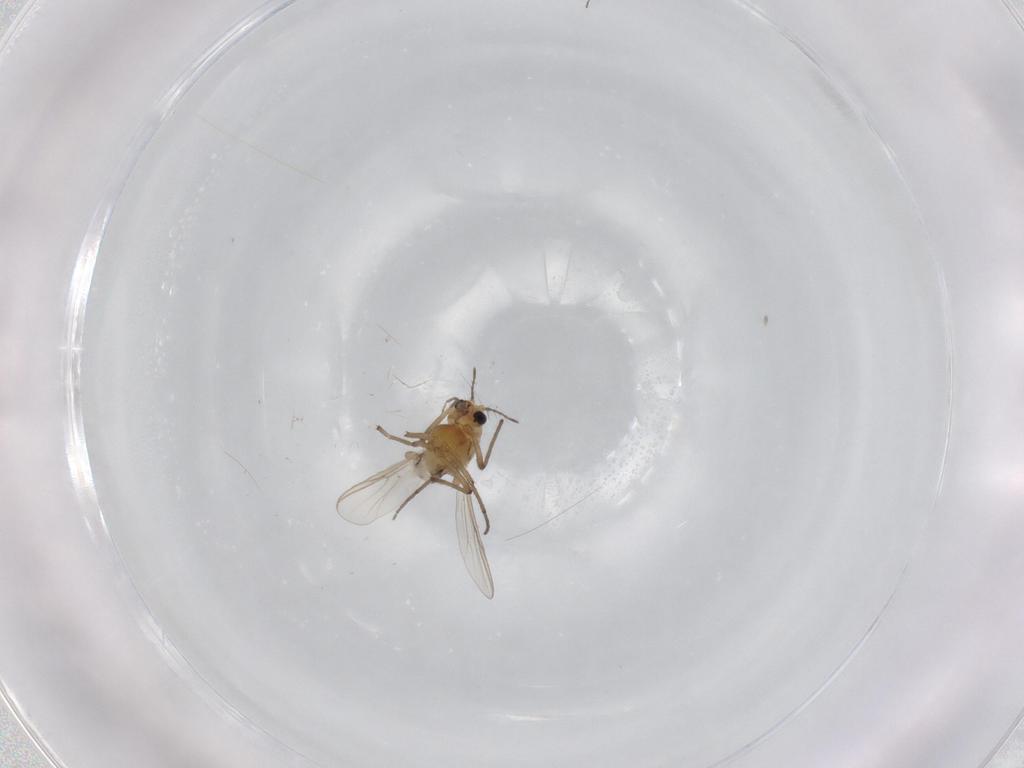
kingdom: Animalia
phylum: Arthropoda
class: Insecta
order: Diptera
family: Chironomidae
